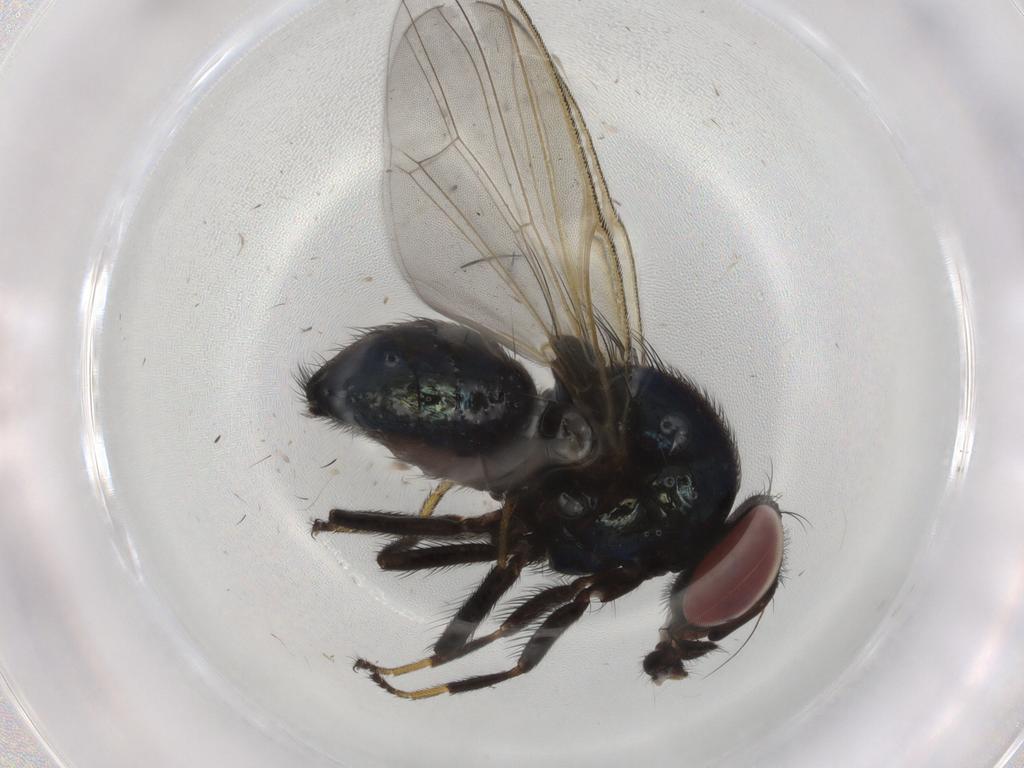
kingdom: Animalia
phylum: Arthropoda
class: Insecta
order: Diptera
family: Lonchaeidae
